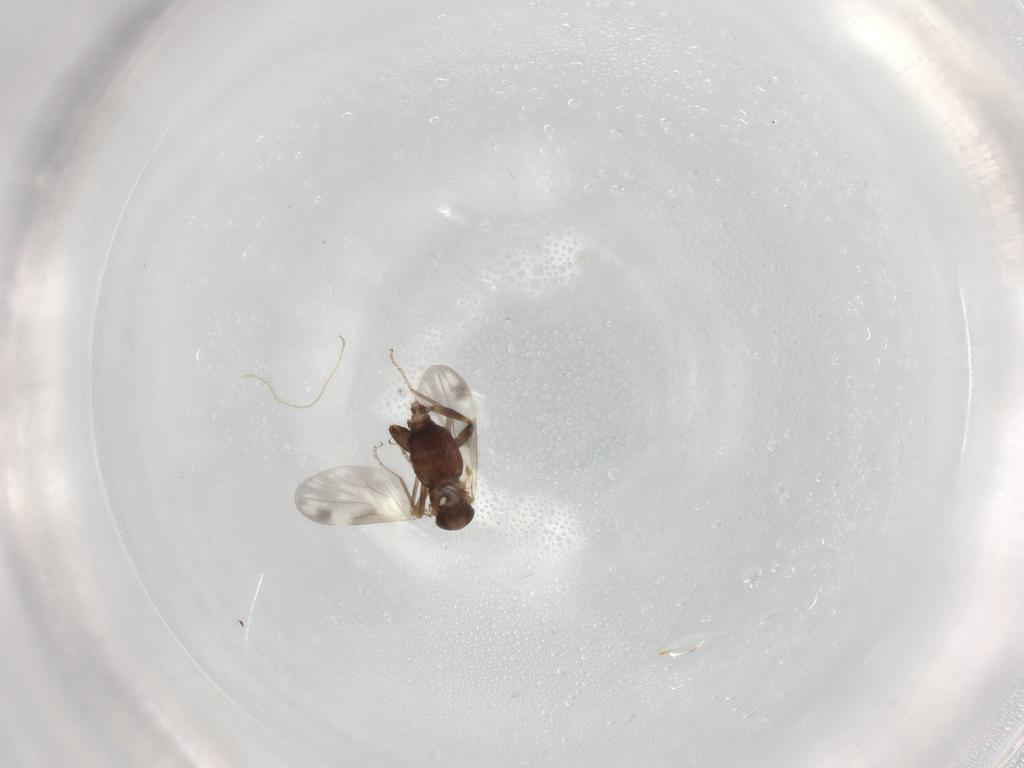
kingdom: Animalia
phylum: Arthropoda
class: Insecta
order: Diptera
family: Ceratopogonidae
